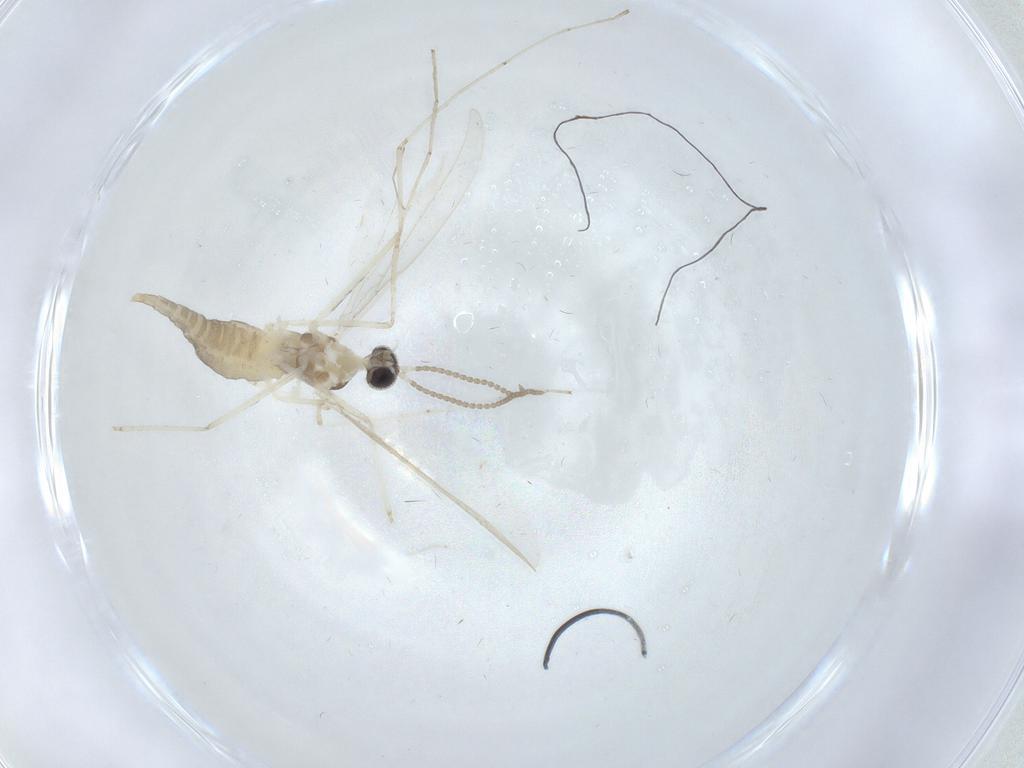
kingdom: Animalia
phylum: Arthropoda
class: Insecta
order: Diptera
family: Cecidomyiidae
